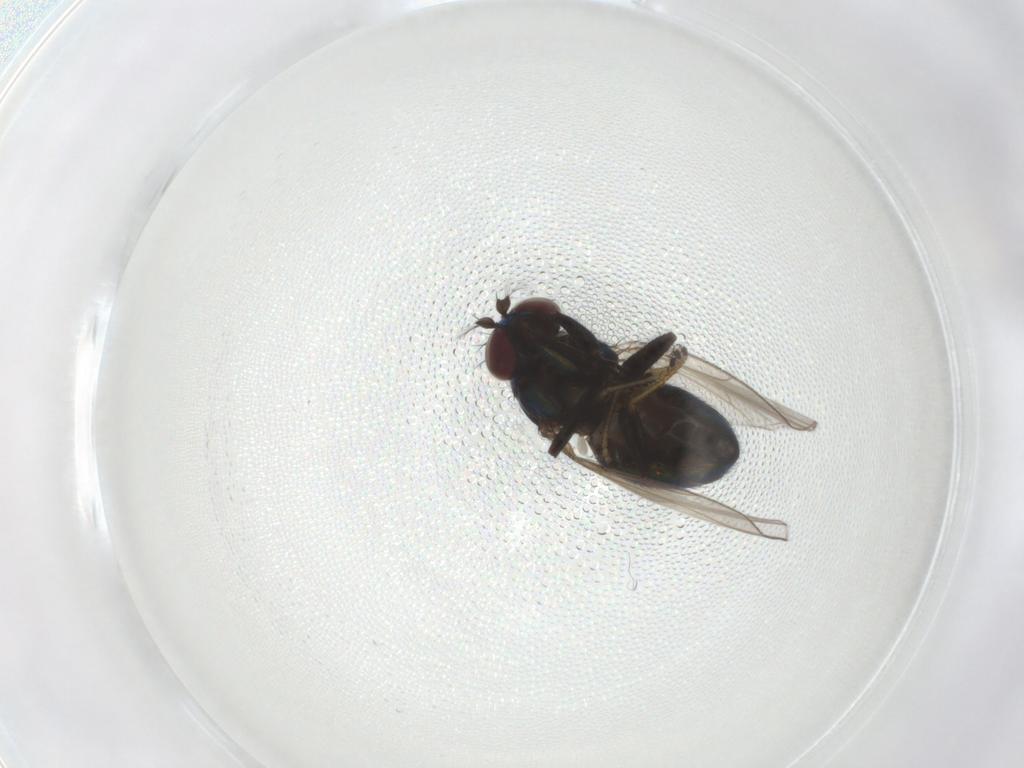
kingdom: Animalia
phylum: Arthropoda
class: Insecta
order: Diptera
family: Ephydridae
